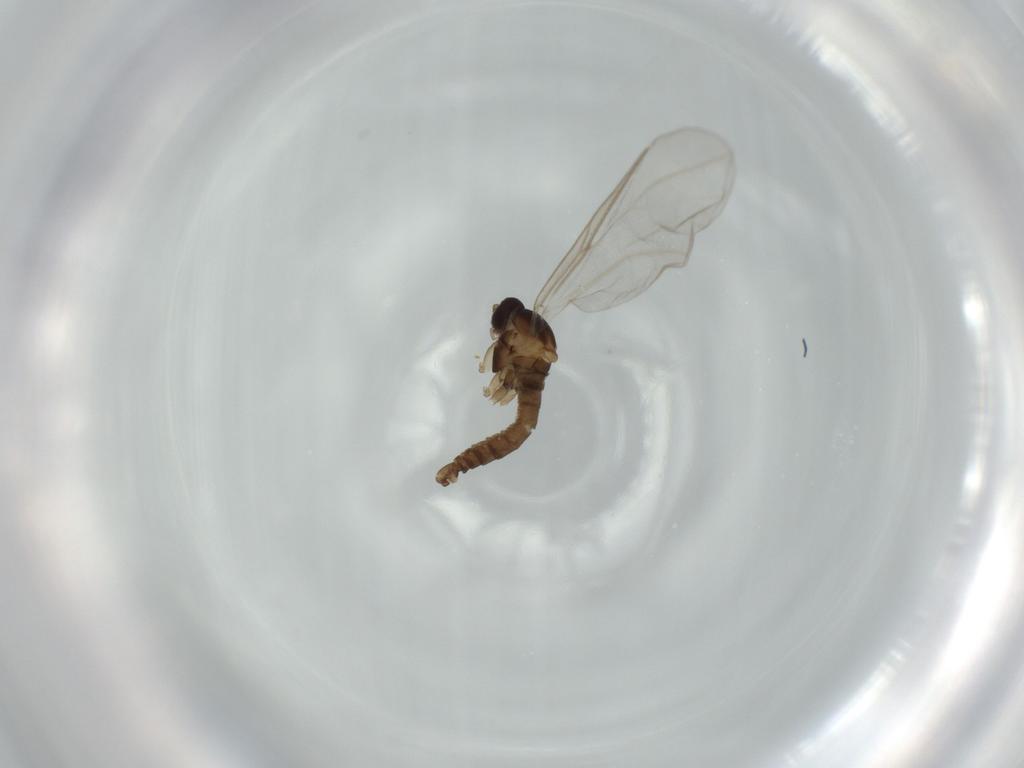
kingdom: Animalia
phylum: Arthropoda
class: Insecta
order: Diptera
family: Cecidomyiidae
